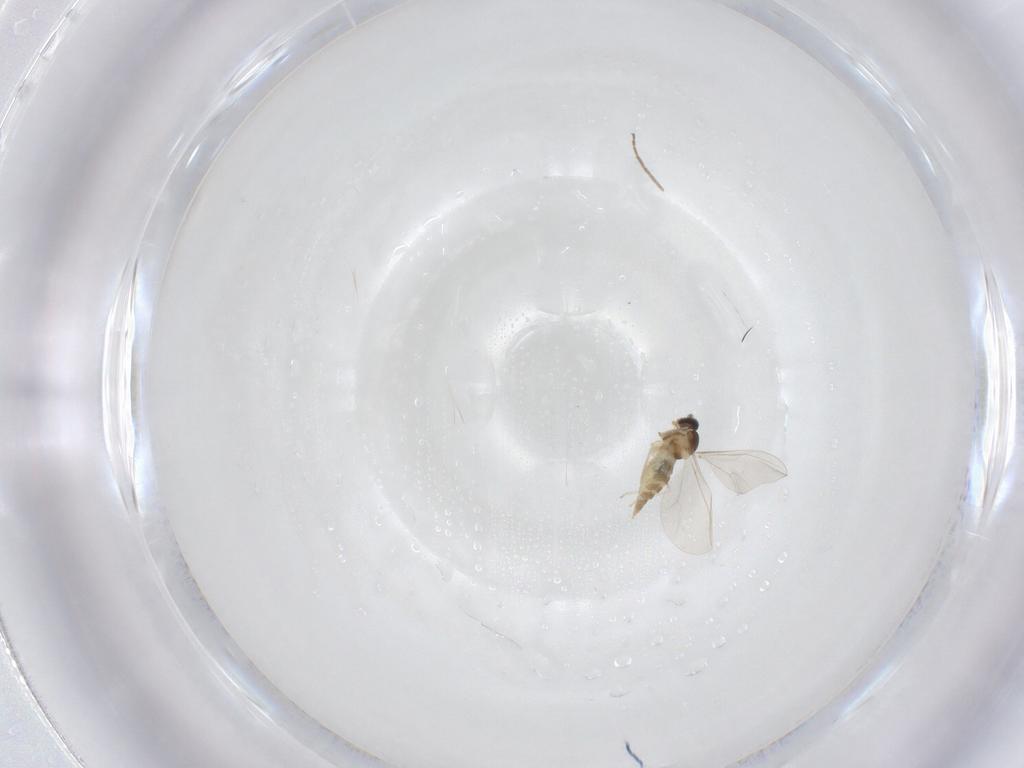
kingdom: Animalia
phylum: Arthropoda
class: Insecta
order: Diptera
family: Cecidomyiidae
